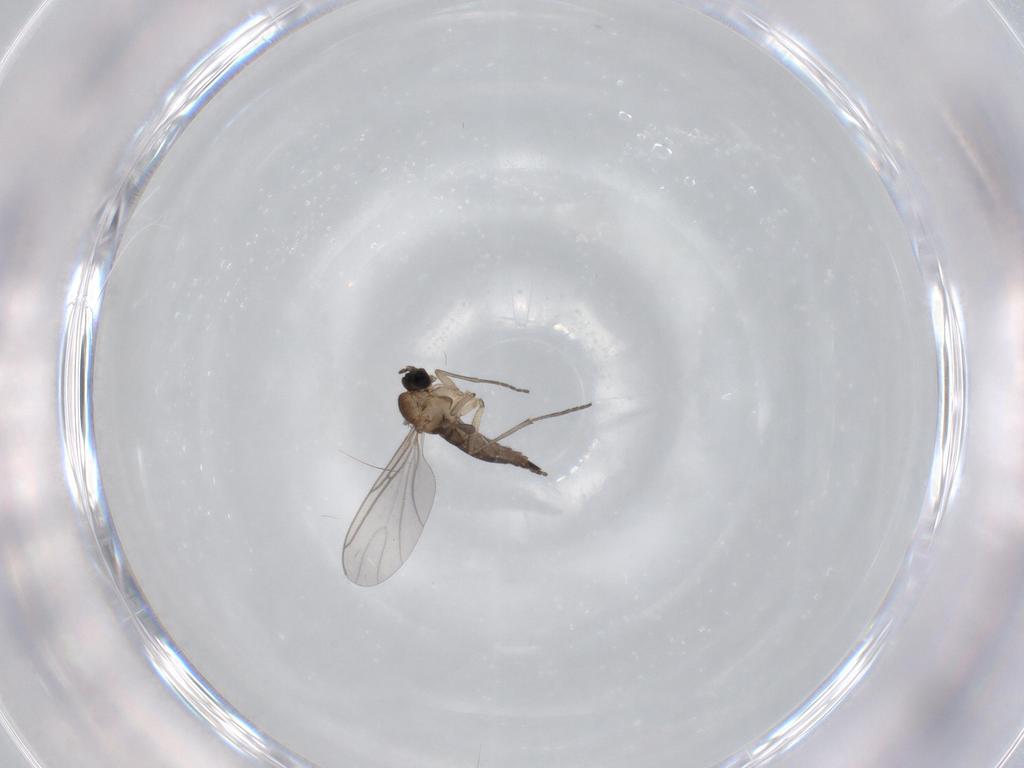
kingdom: Animalia
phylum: Arthropoda
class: Insecta
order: Diptera
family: Sciaridae
